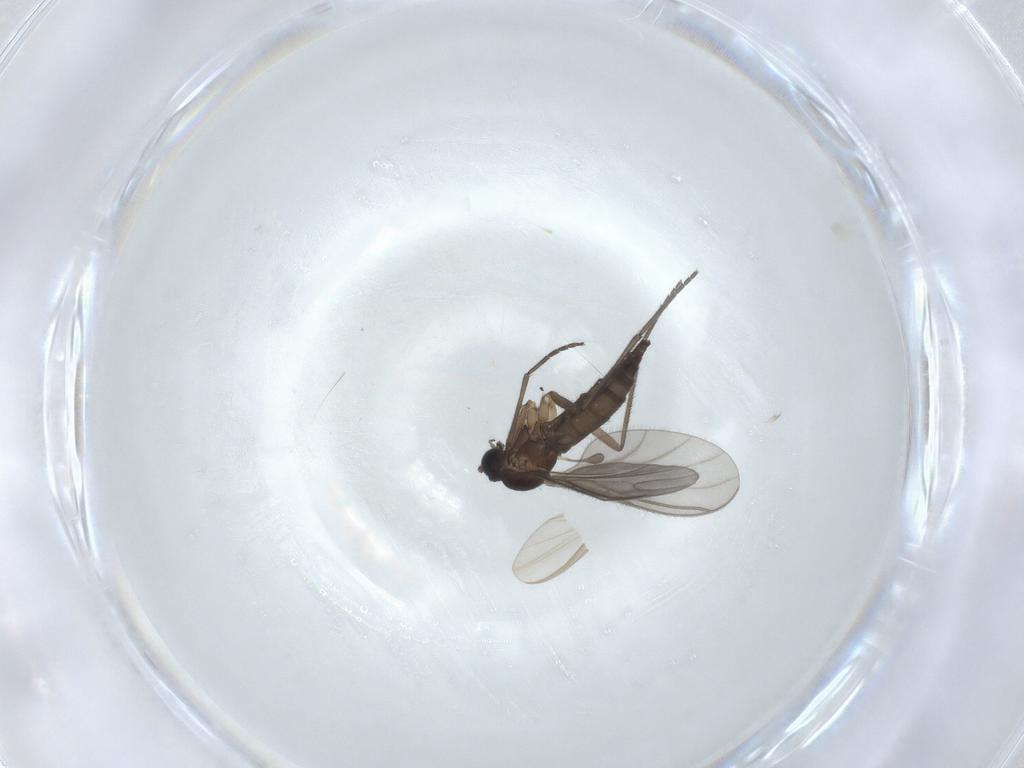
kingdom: Animalia
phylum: Arthropoda
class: Insecta
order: Diptera
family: Sciaridae
